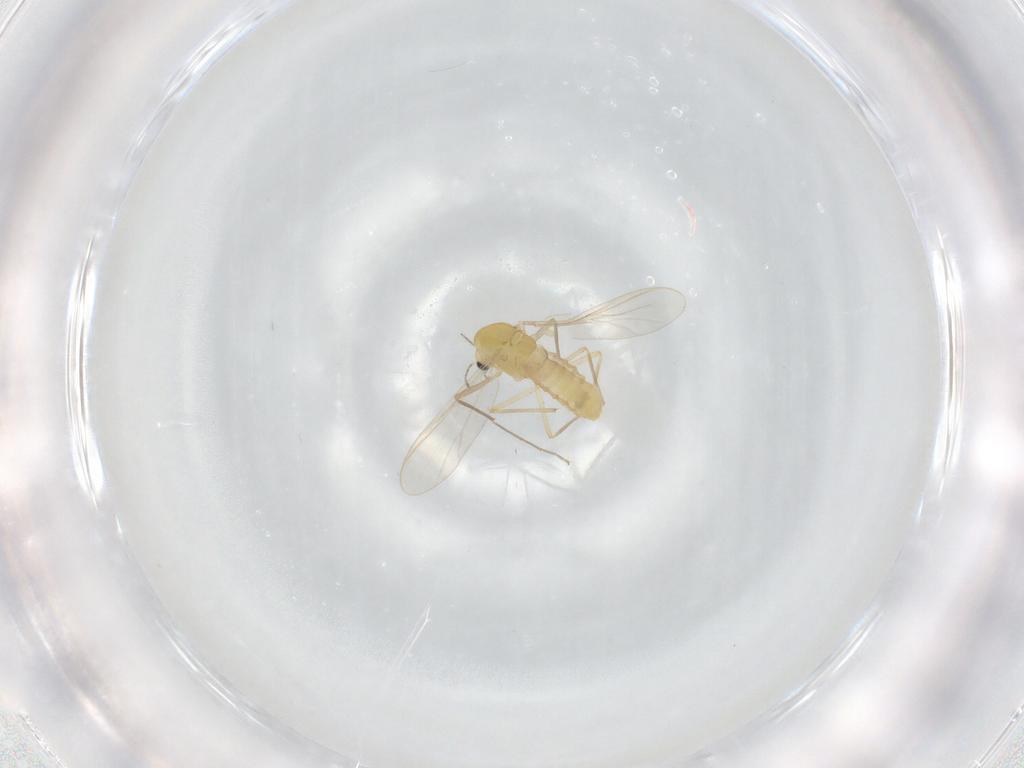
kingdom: Animalia
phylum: Arthropoda
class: Insecta
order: Diptera
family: Chironomidae
